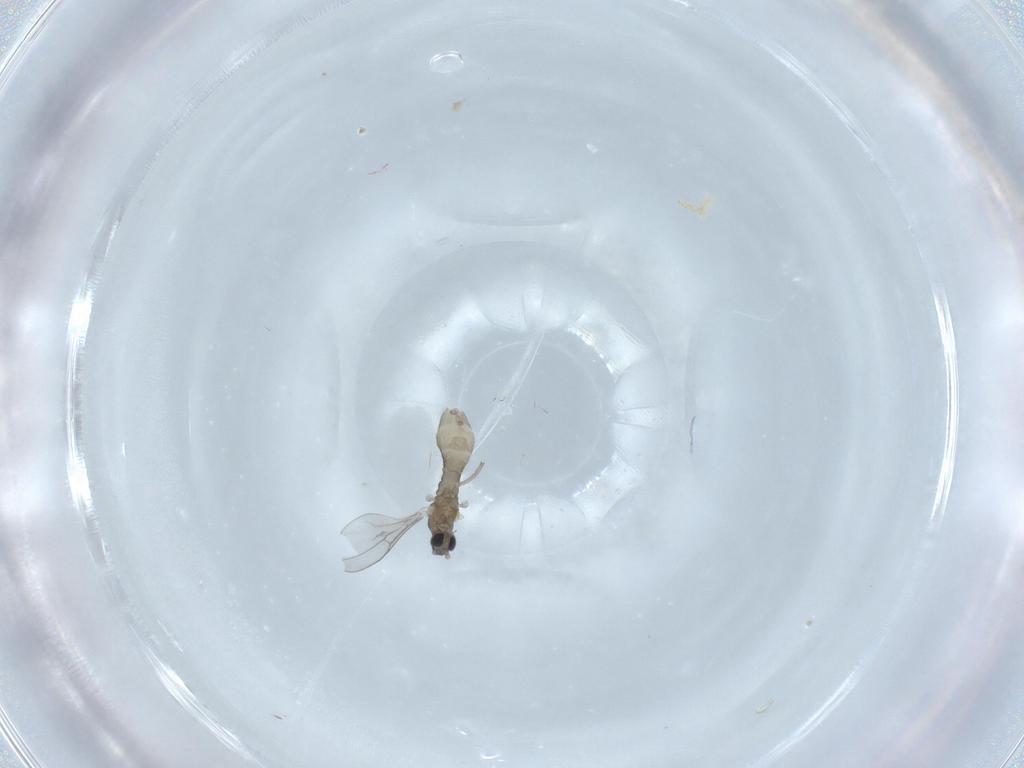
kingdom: Animalia
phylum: Arthropoda
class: Insecta
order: Diptera
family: Cecidomyiidae
